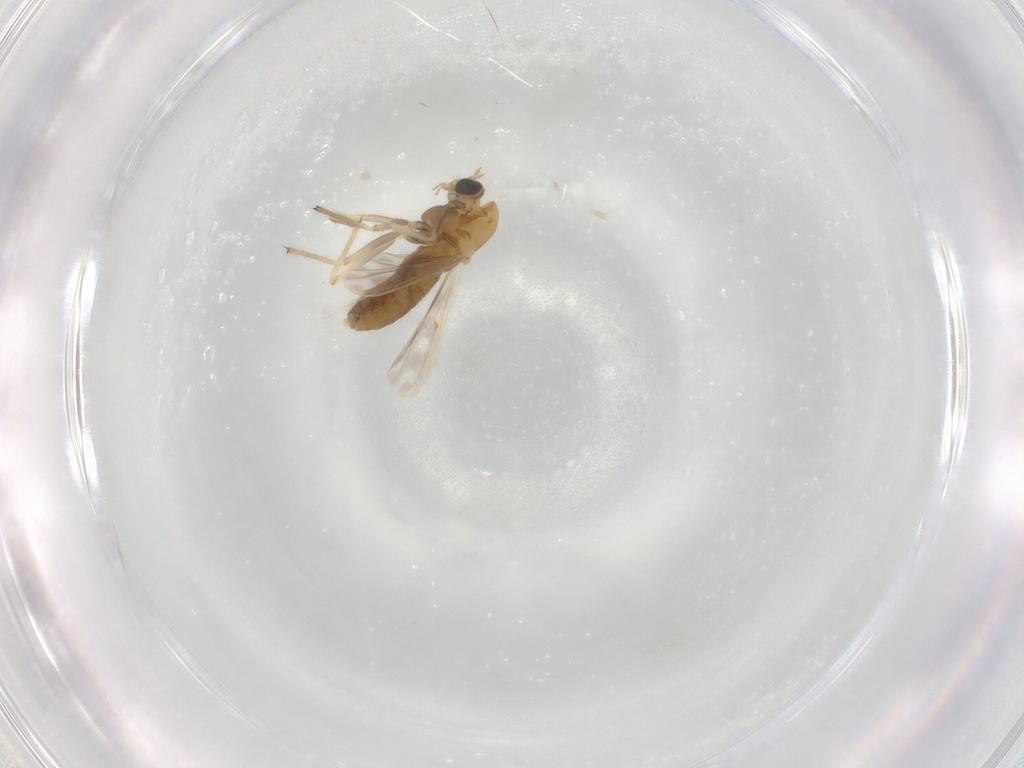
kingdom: Animalia
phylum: Arthropoda
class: Insecta
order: Diptera
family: Chironomidae
